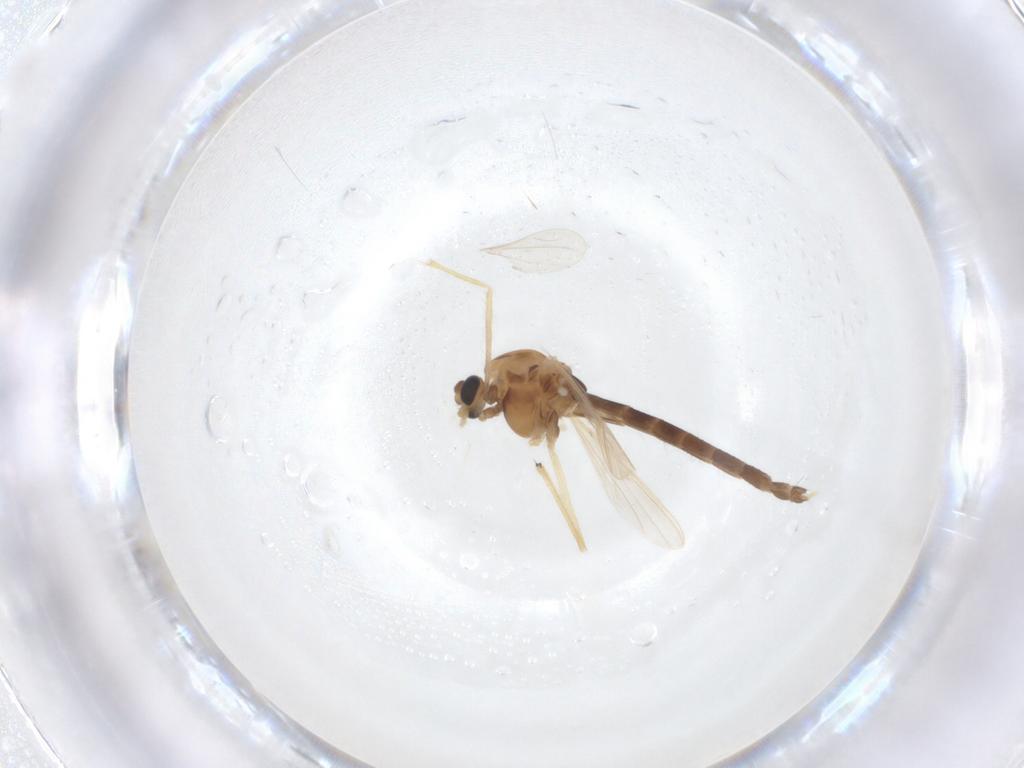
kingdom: Animalia
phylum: Arthropoda
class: Insecta
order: Diptera
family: Chironomidae
